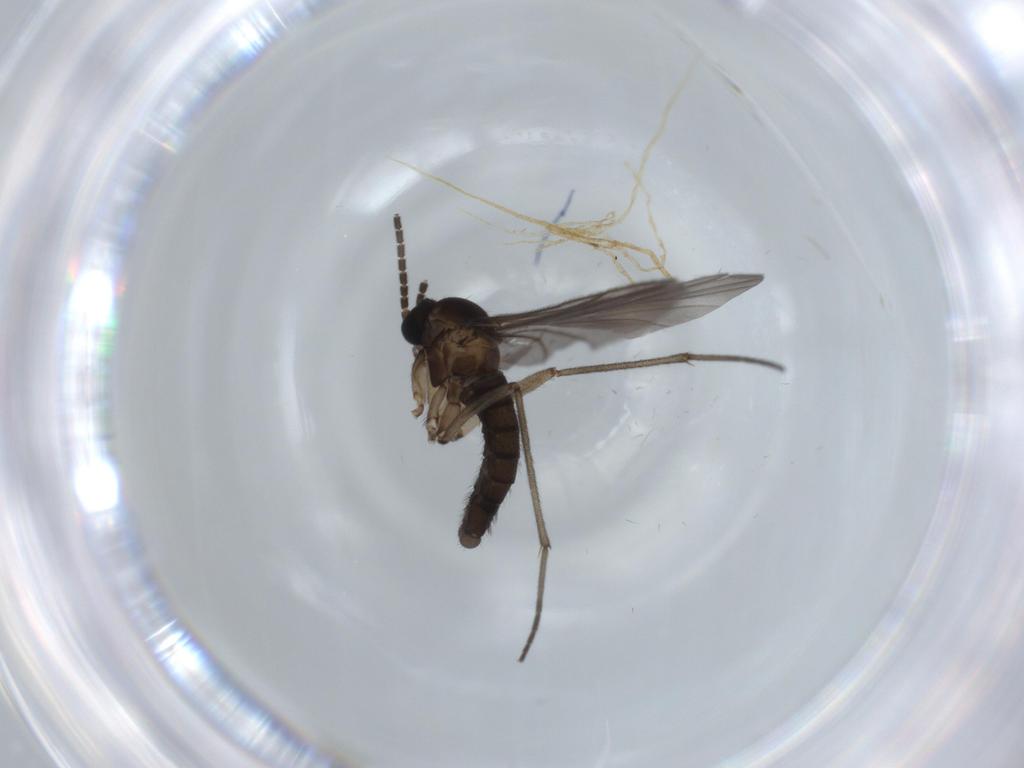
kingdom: Animalia
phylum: Arthropoda
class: Insecta
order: Diptera
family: Sciaridae
